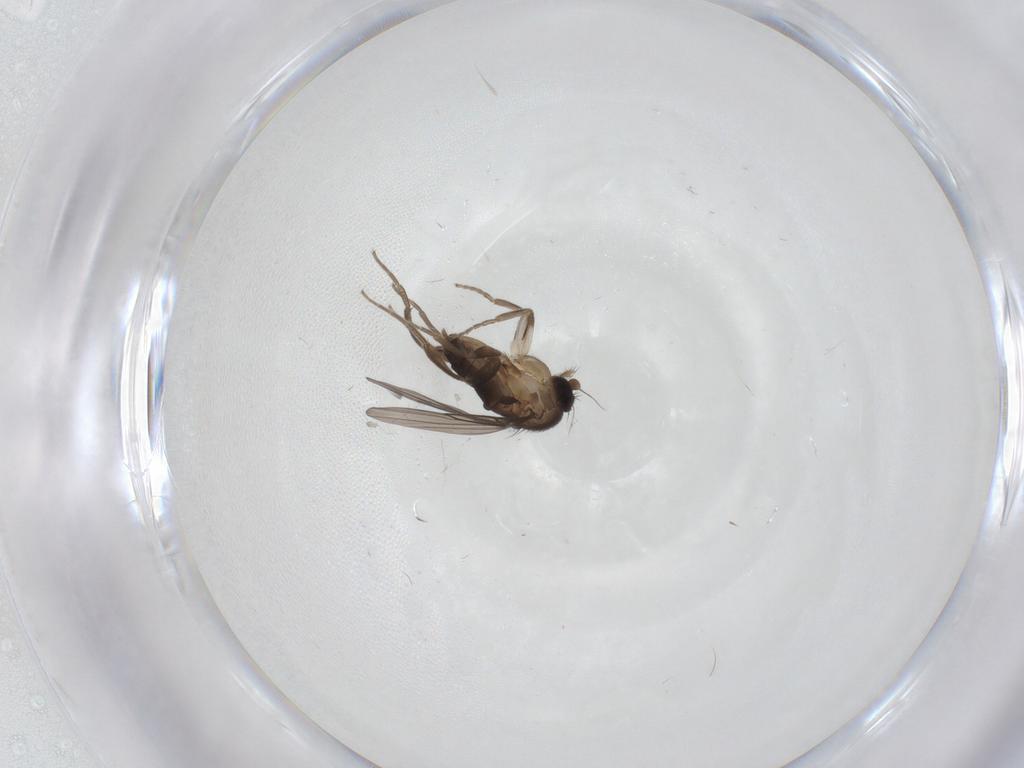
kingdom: Animalia
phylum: Arthropoda
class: Insecta
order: Diptera
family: Chironomidae
